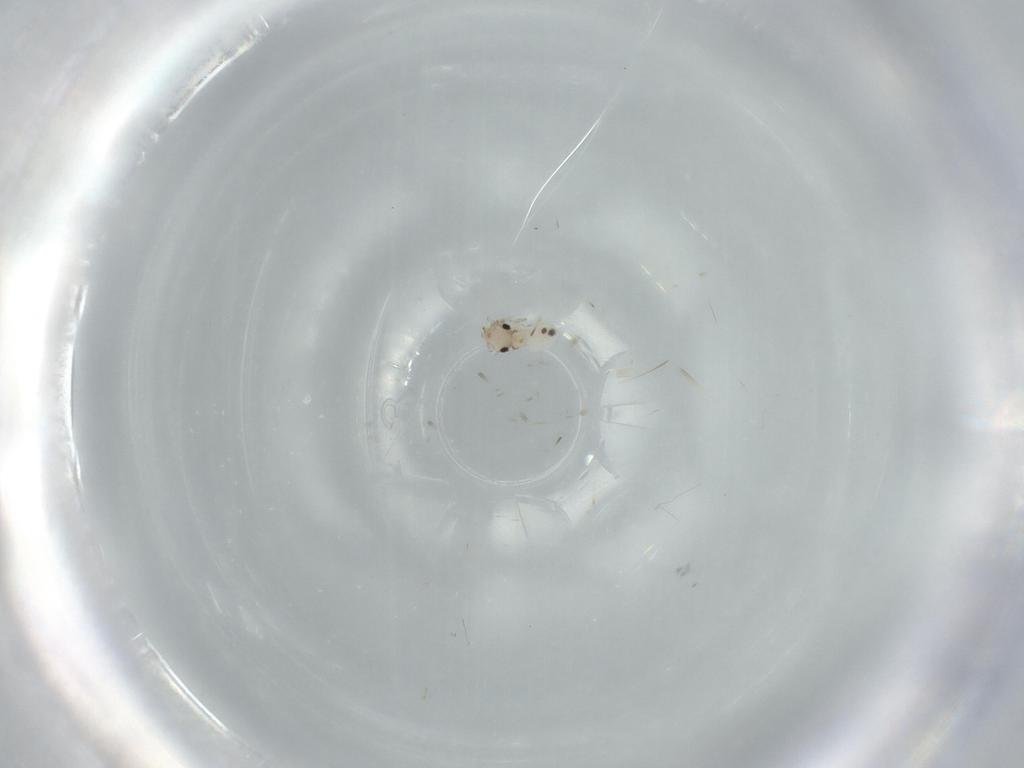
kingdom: Animalia
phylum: Arthropoda
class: Insecta
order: Psocodea
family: Lepidopsocidae
